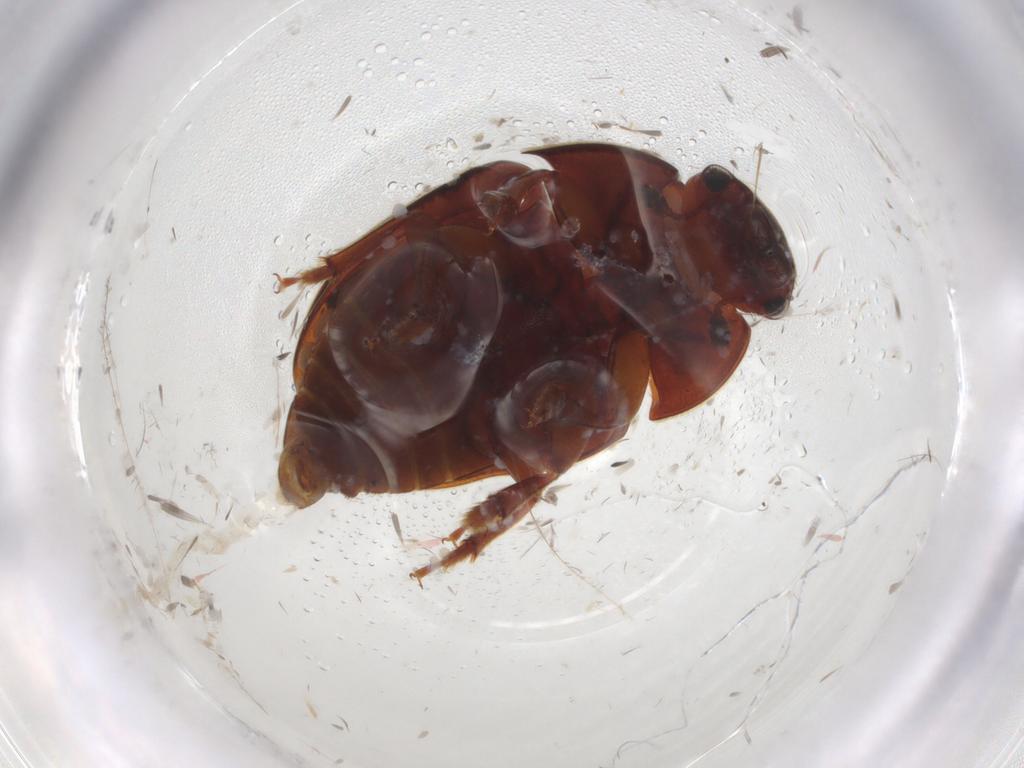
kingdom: Animalia
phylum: Arthropoda
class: Insecta
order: Coleoptera
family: Nitidulidae
